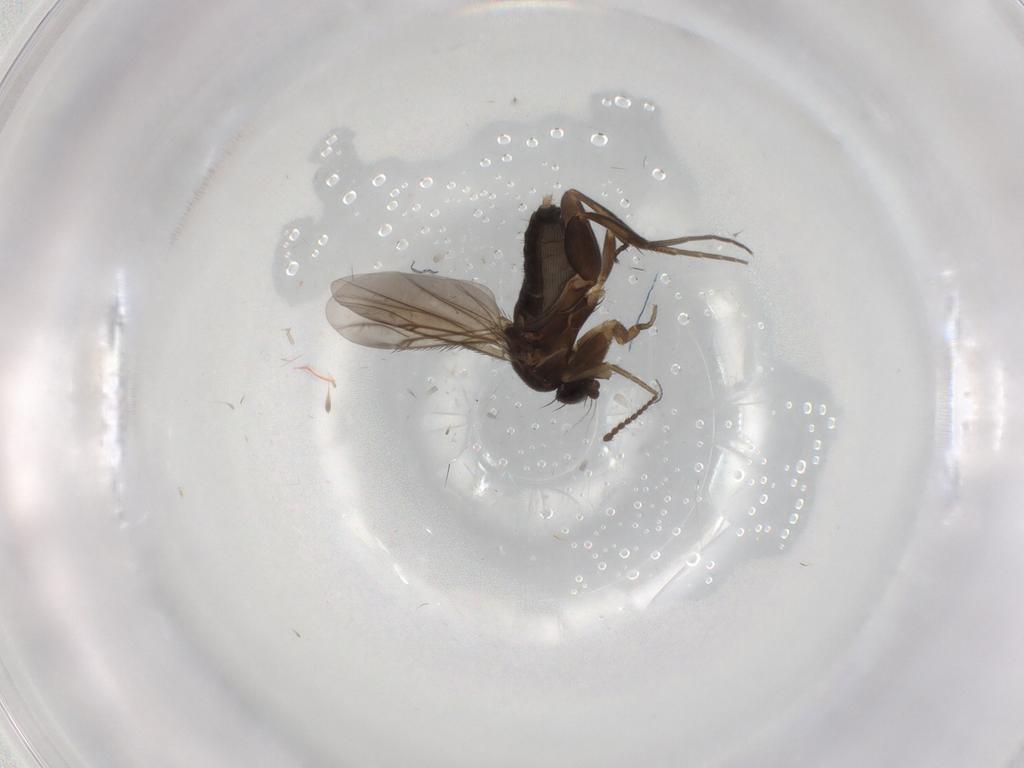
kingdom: Animalia
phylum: Arthropoda
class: Insecta
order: Diptera
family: Phoridae
